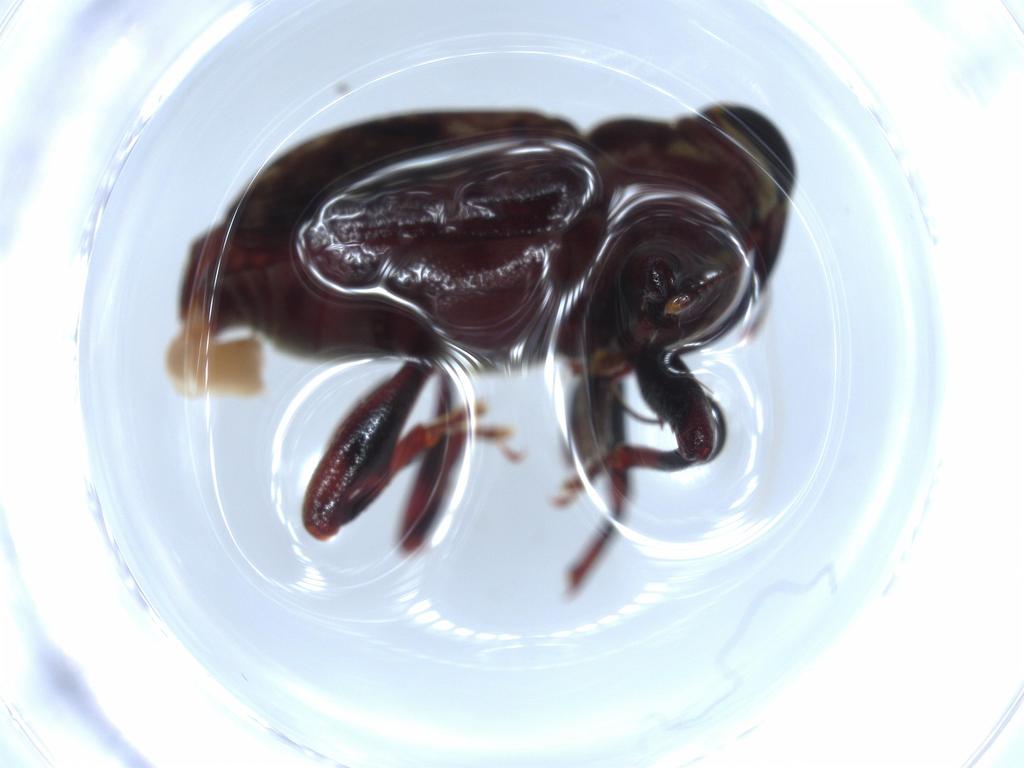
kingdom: Animalia
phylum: Arthropoda
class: Insecta
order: Coleoptera
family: Curculionidae
